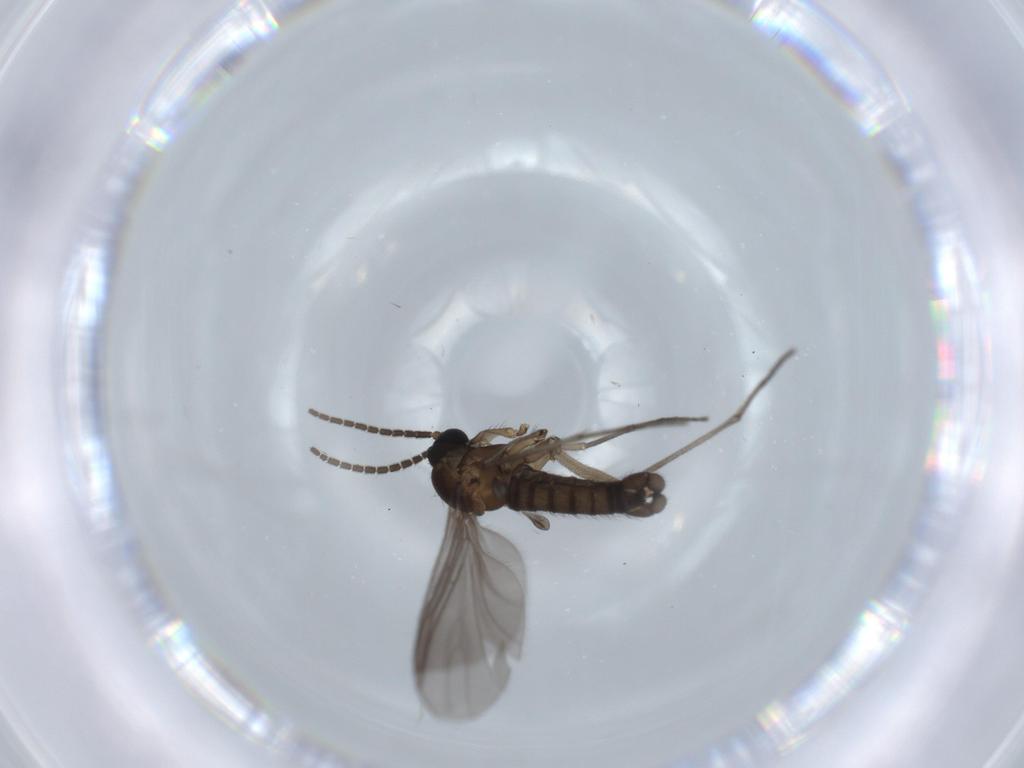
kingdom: Animalia
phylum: Arthropoda
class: Insecta
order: Diptera
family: Sciaridae
